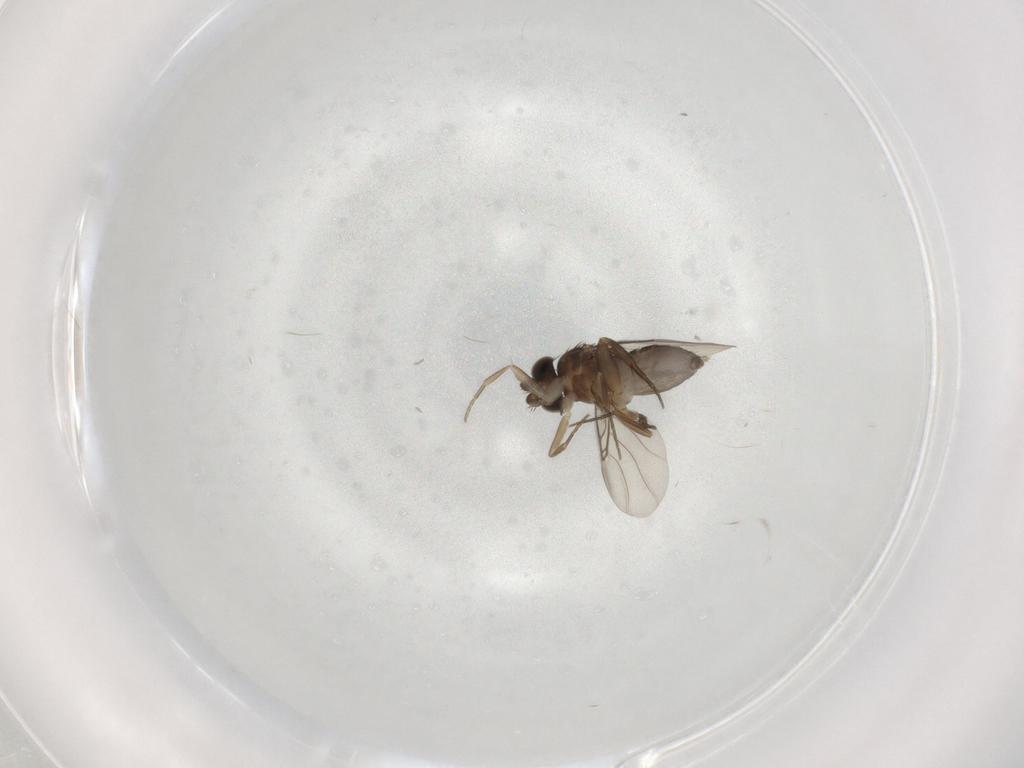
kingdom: Animalia
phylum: Arthropoda
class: Insecta
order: Diptera
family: Phoridae
